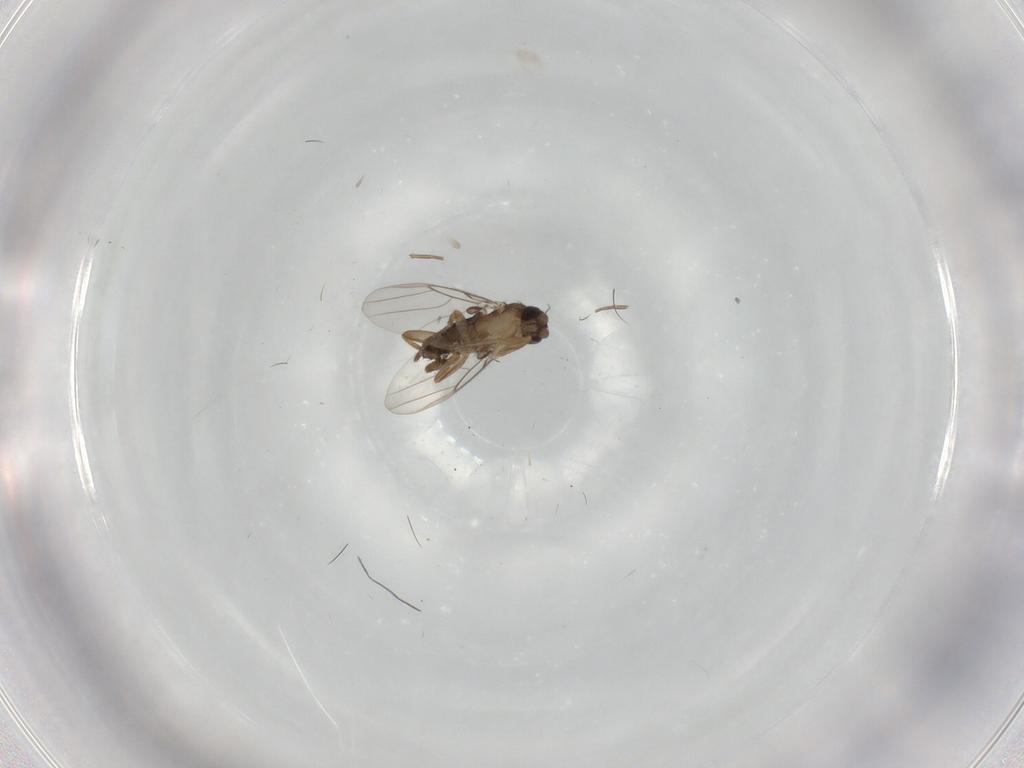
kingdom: Animalia
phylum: Arthropoda
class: Insecta
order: Diptera
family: Phoridae
